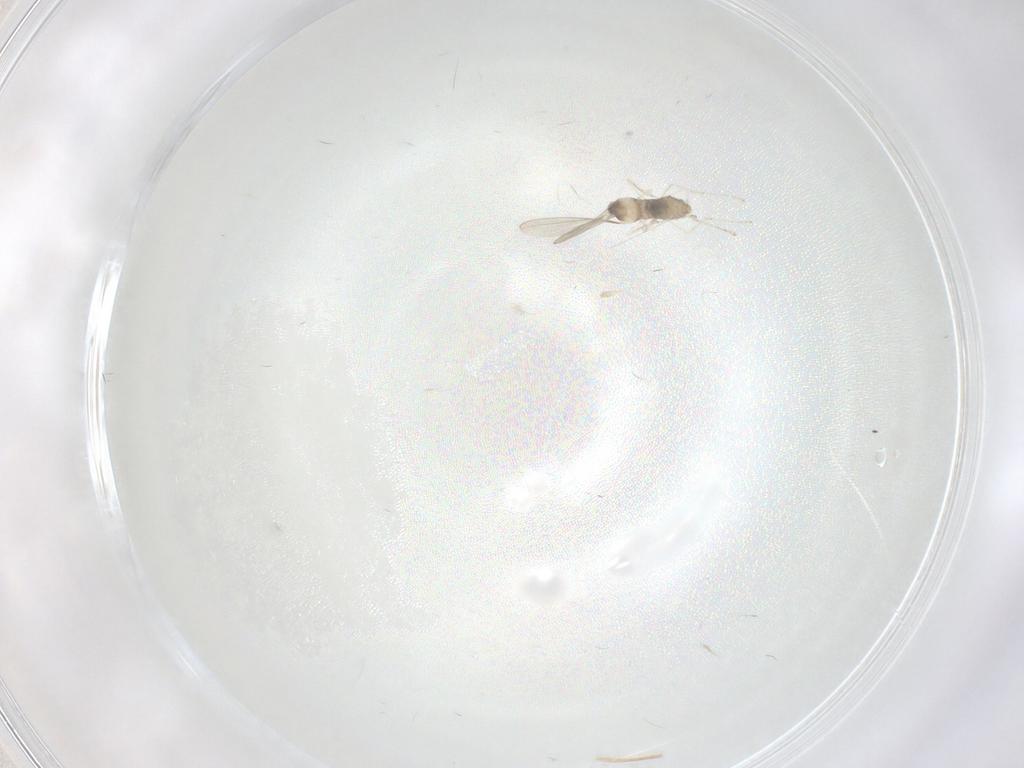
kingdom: Animalia
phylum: Arthropoda
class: Insecta
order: Diptera
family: Cecidomyiidae
